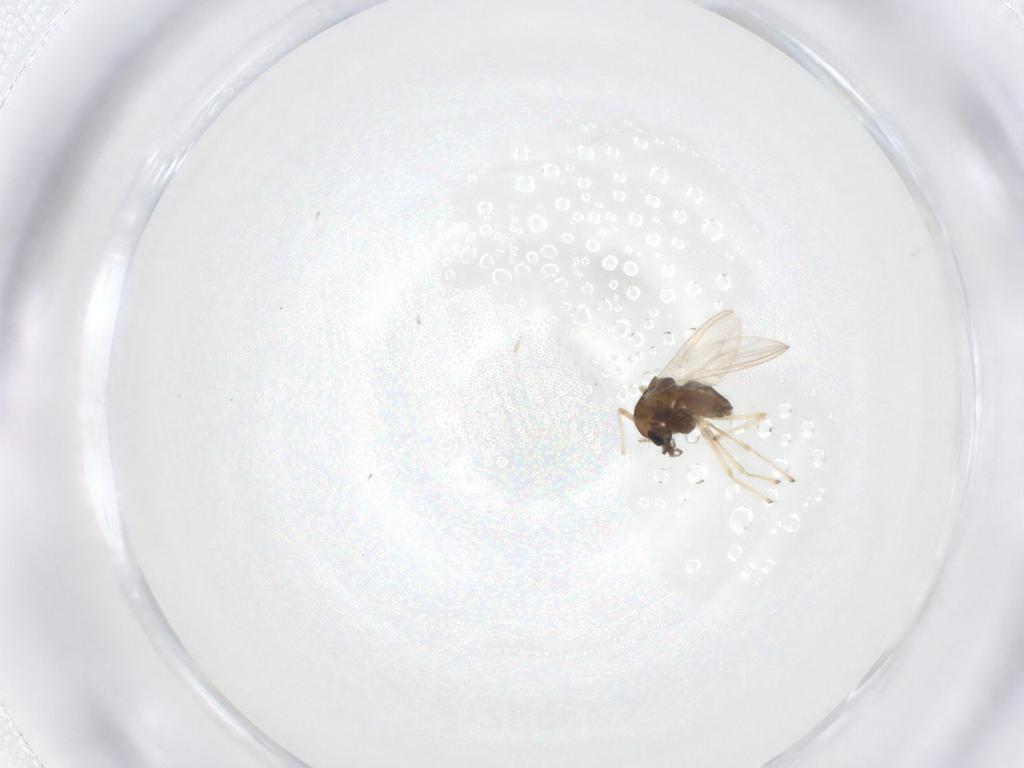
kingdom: Animalia
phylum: Arthropoda
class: Insecta
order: Diptera
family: Chironomidae
